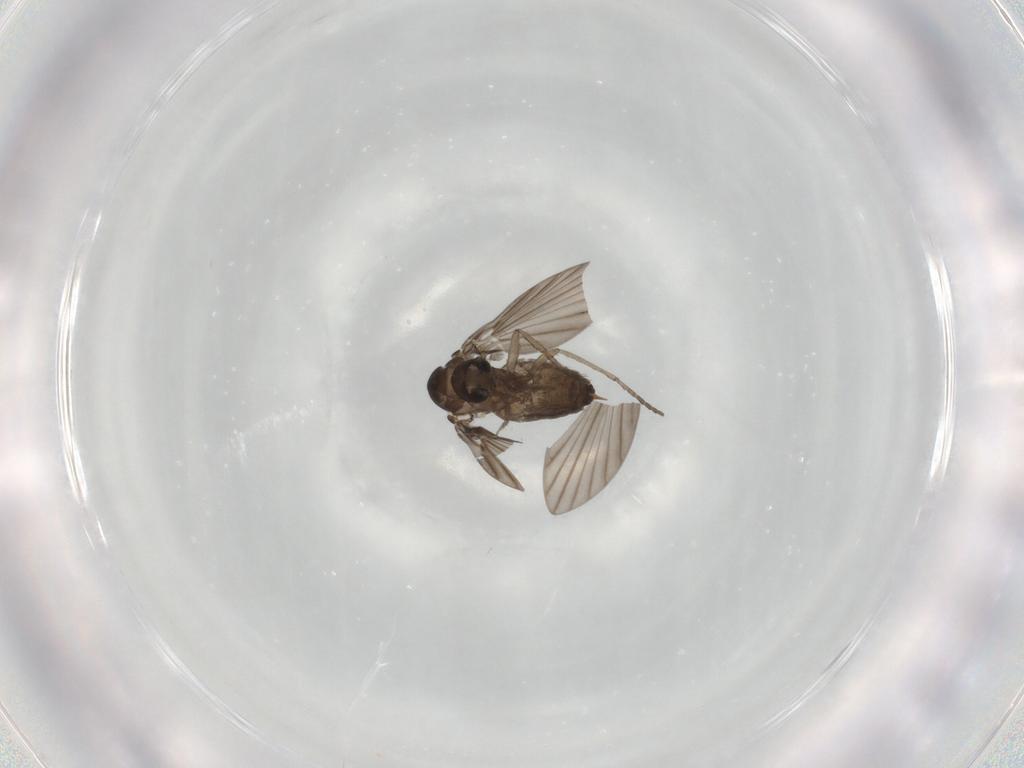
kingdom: Animalia
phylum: Arthropoda
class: Insecta
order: Diptera
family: Psychodidae
